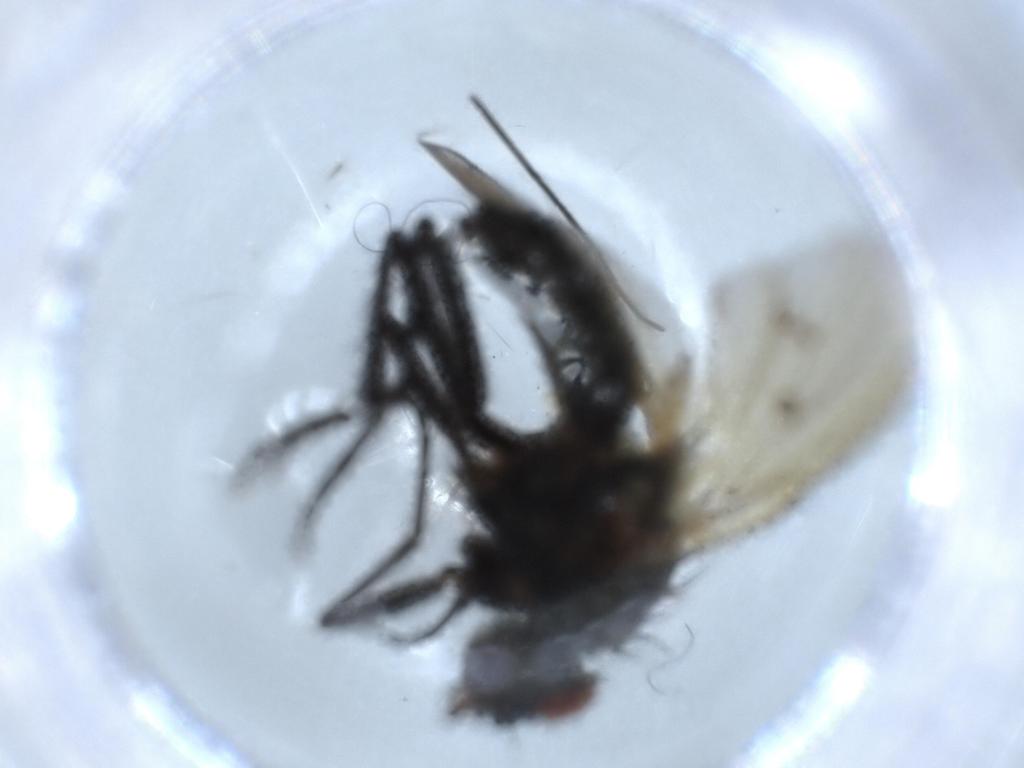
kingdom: Animalia
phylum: Arthropoda
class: Insecta
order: Diptera
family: Anthomyiidae
